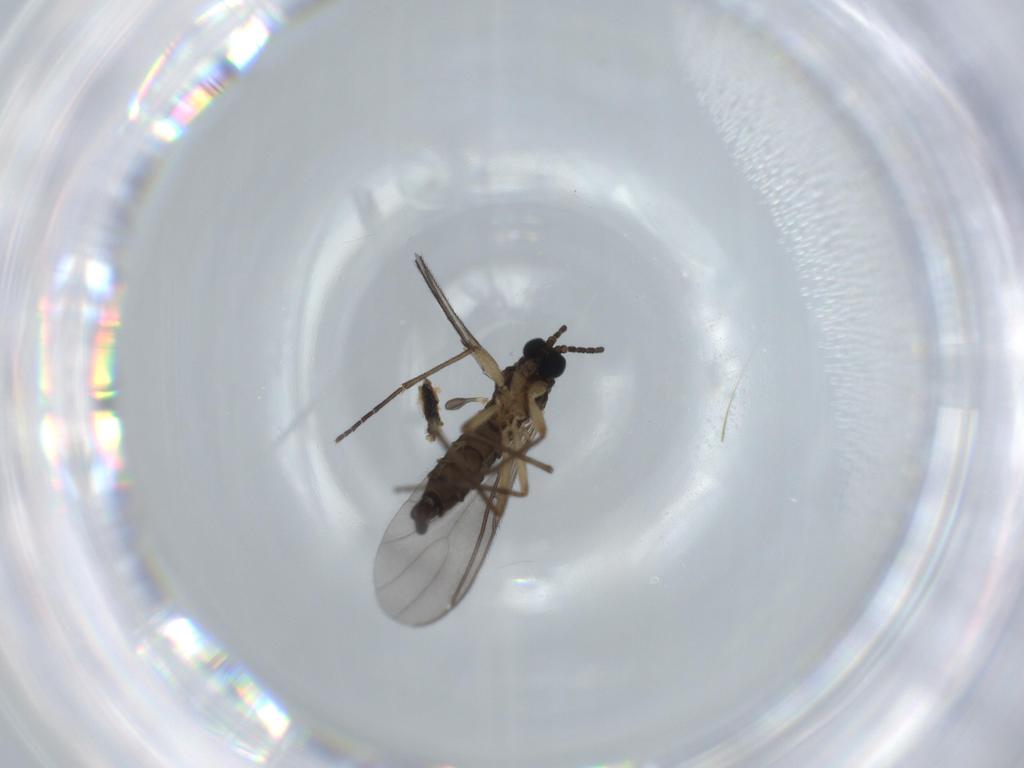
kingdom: Animalia
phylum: Arthropoda
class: Insecta
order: Diptera
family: Sciaridae
